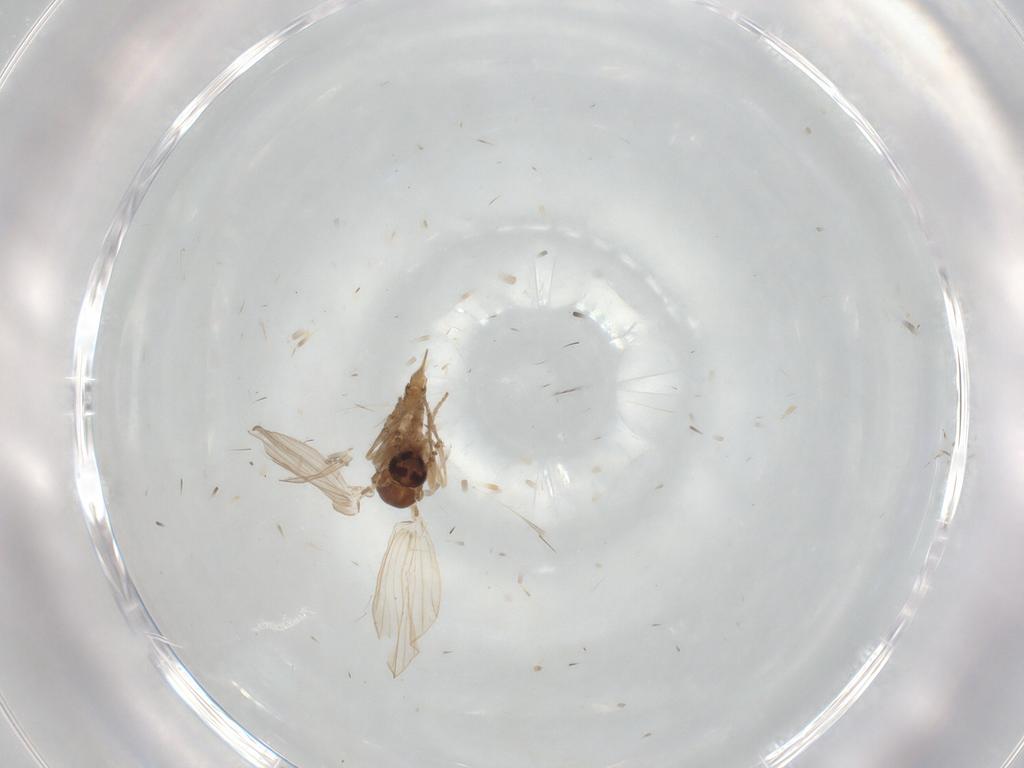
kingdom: Animalia
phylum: Arthropoda
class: Insecta
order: Diptera
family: Psychodidae
